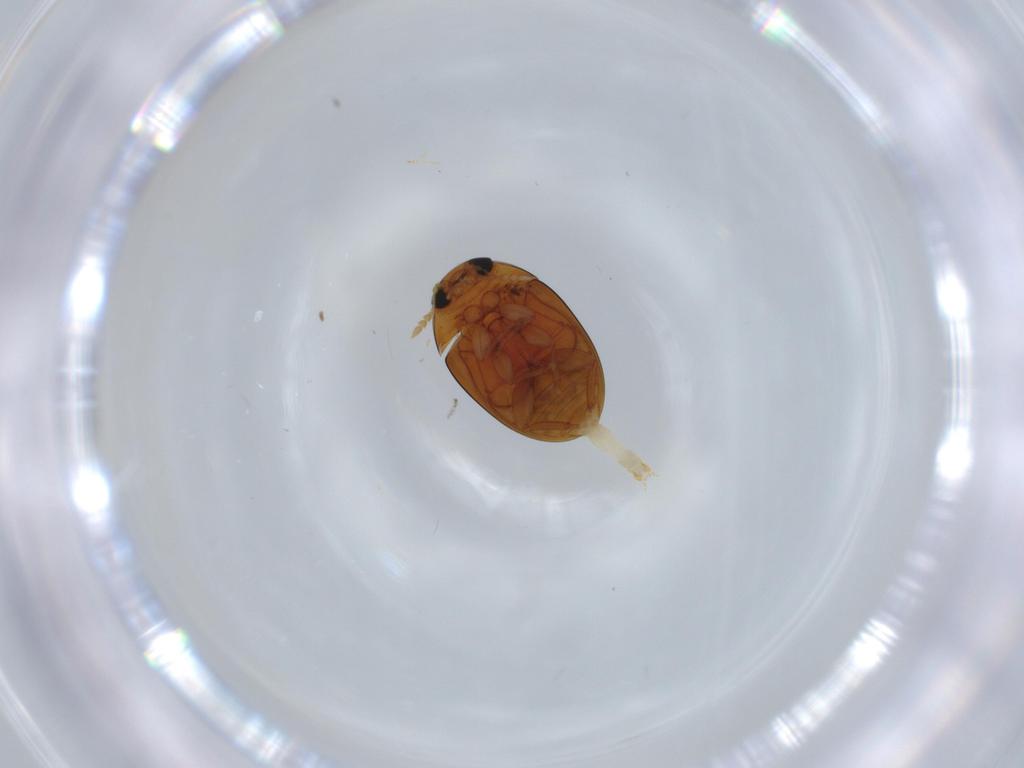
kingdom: Animalia
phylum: Arthropoda
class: Insecta
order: Coleoptera
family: Phalacridae
